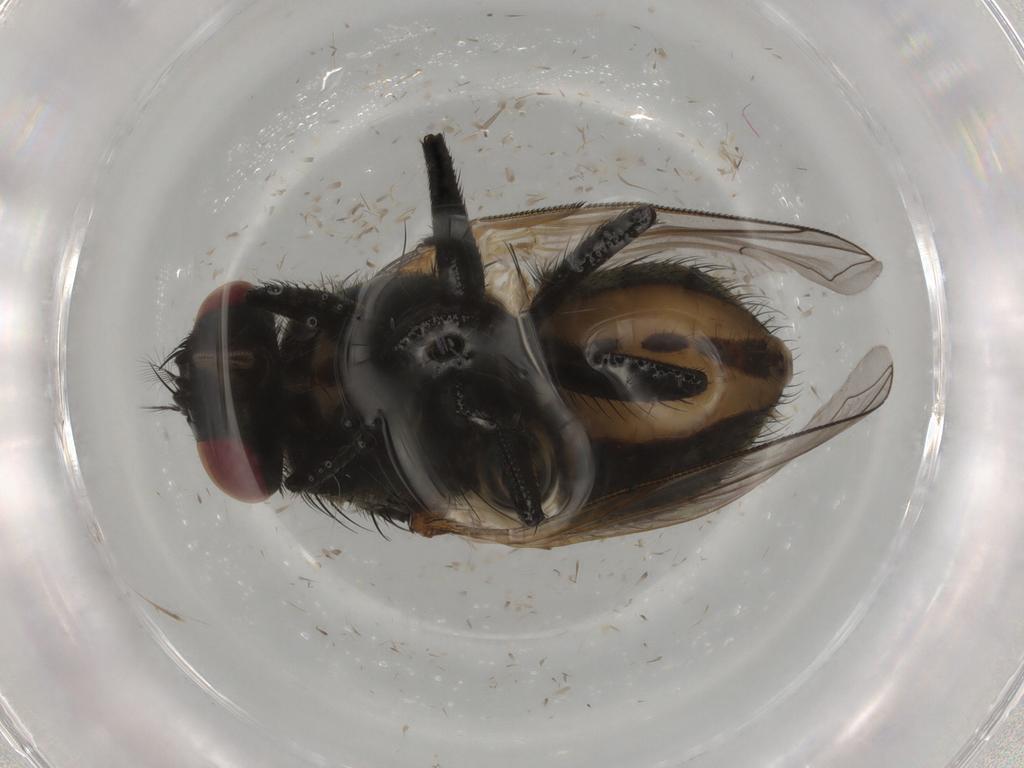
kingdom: Animalia
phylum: Arthropoda
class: Insecta
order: Diptera
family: Muscidae
